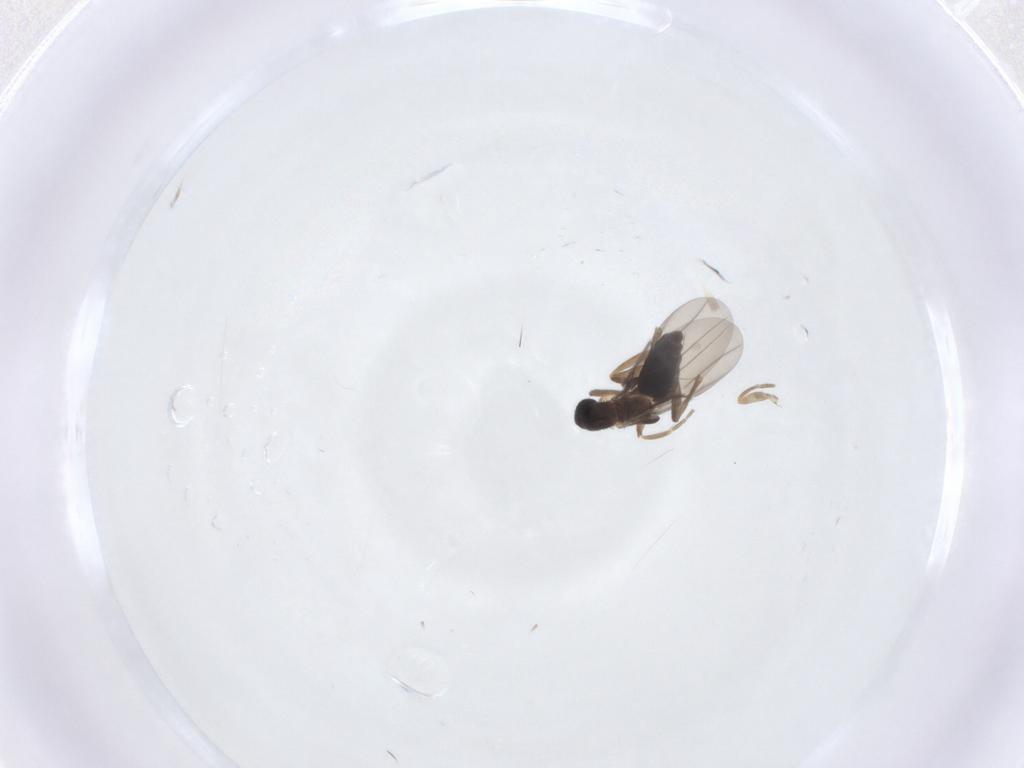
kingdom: Animalia
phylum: Arthropoda
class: Insecta
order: Diptera
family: Phoridae
